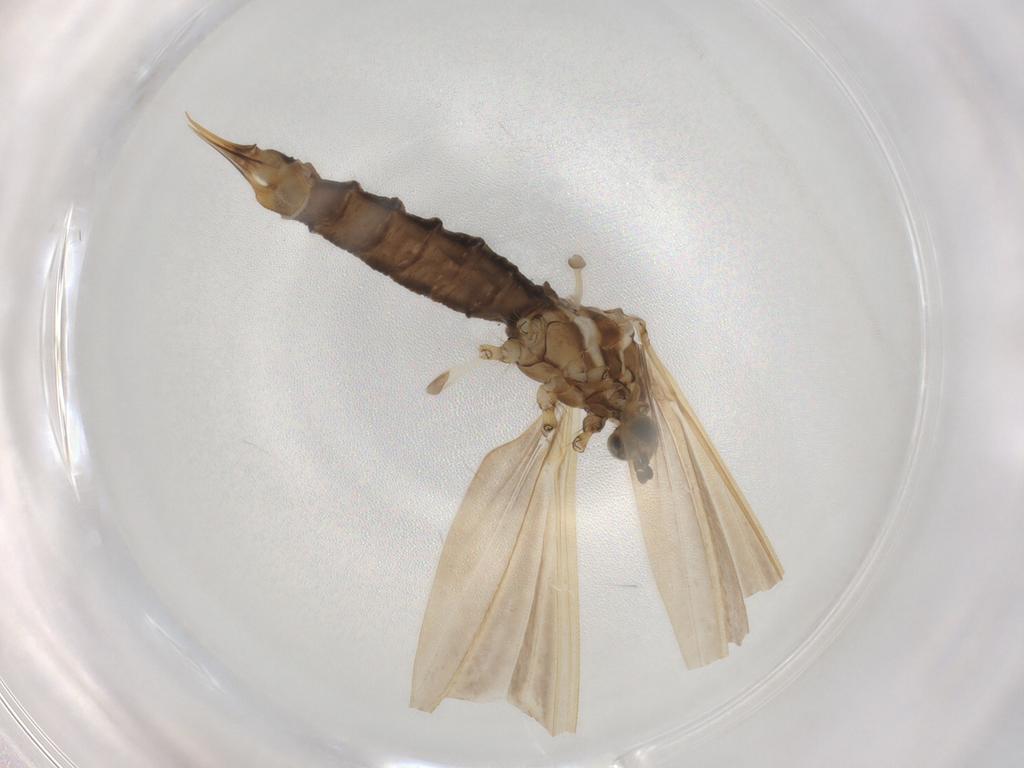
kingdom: Animalia
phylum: Arthropoda
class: Insecta
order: Diptera
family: Limoniidae
